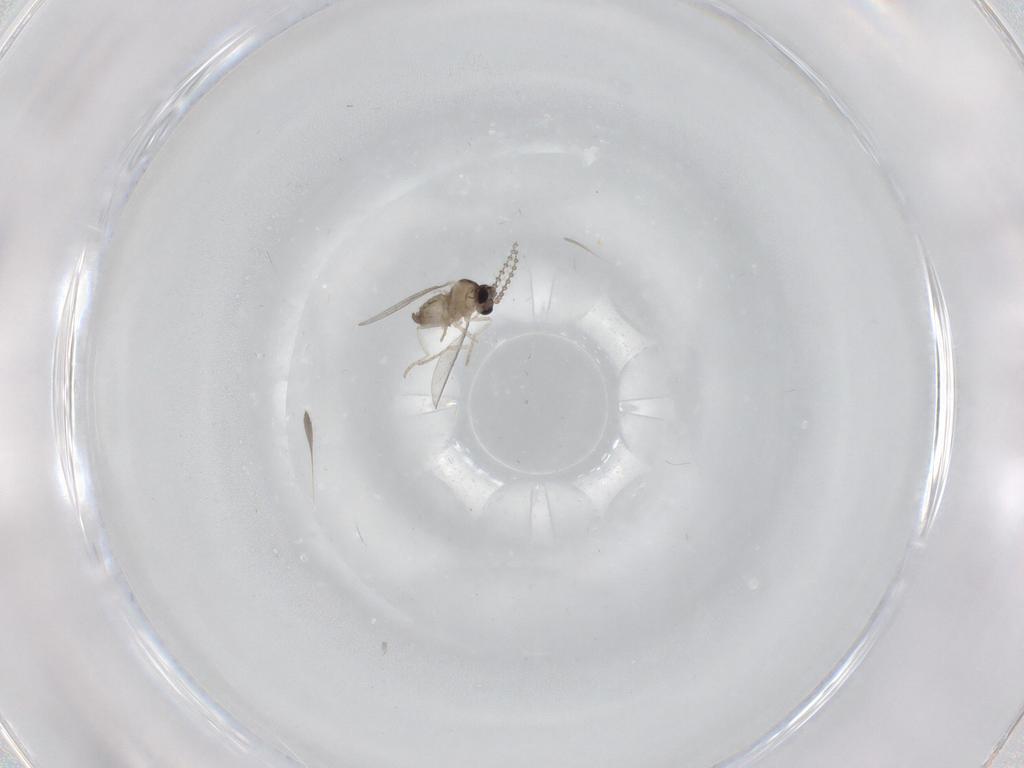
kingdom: Animalia
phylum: Arthropoda
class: Insecta
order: Diptera
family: Cecidomyiidae
